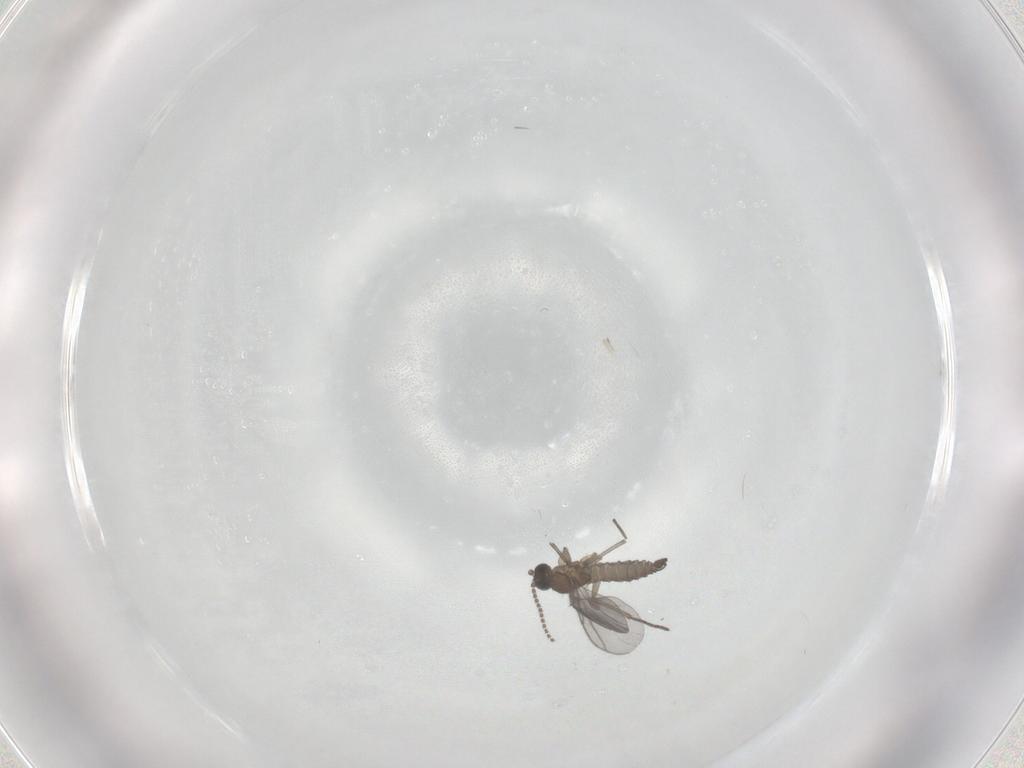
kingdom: Animalia
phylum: Arthropoda
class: Insecta
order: Diptera
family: Sciaridae
